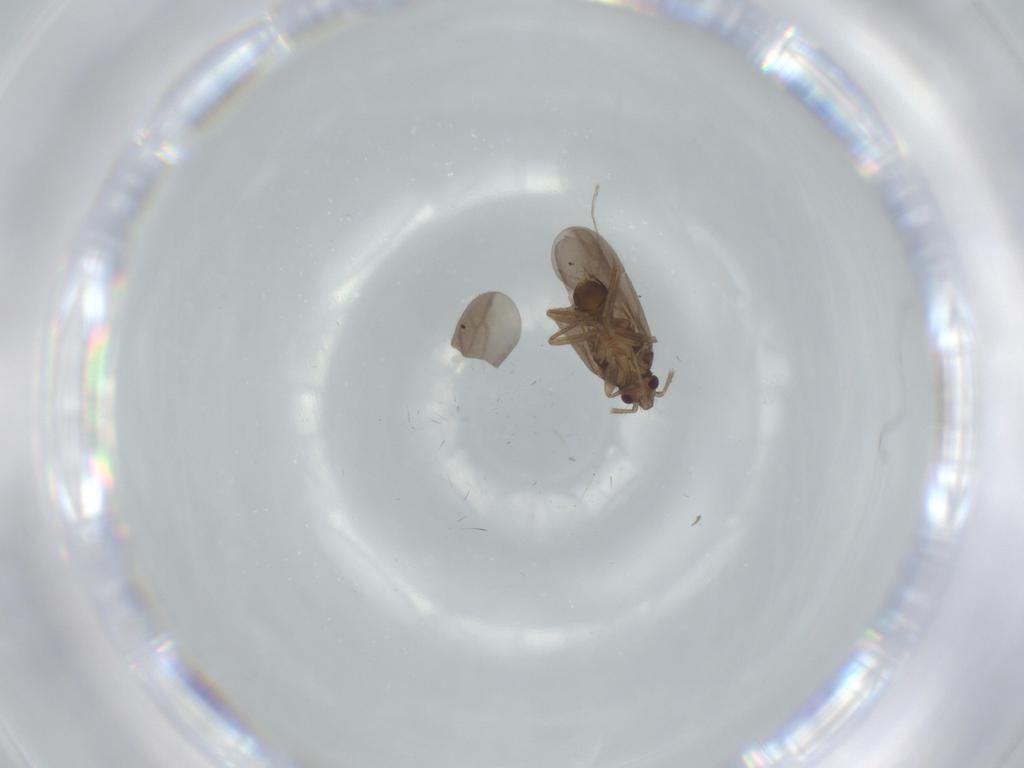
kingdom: Animalia
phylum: Arthropoda
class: Insecta
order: Hemiptera
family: Ceratocombidae
